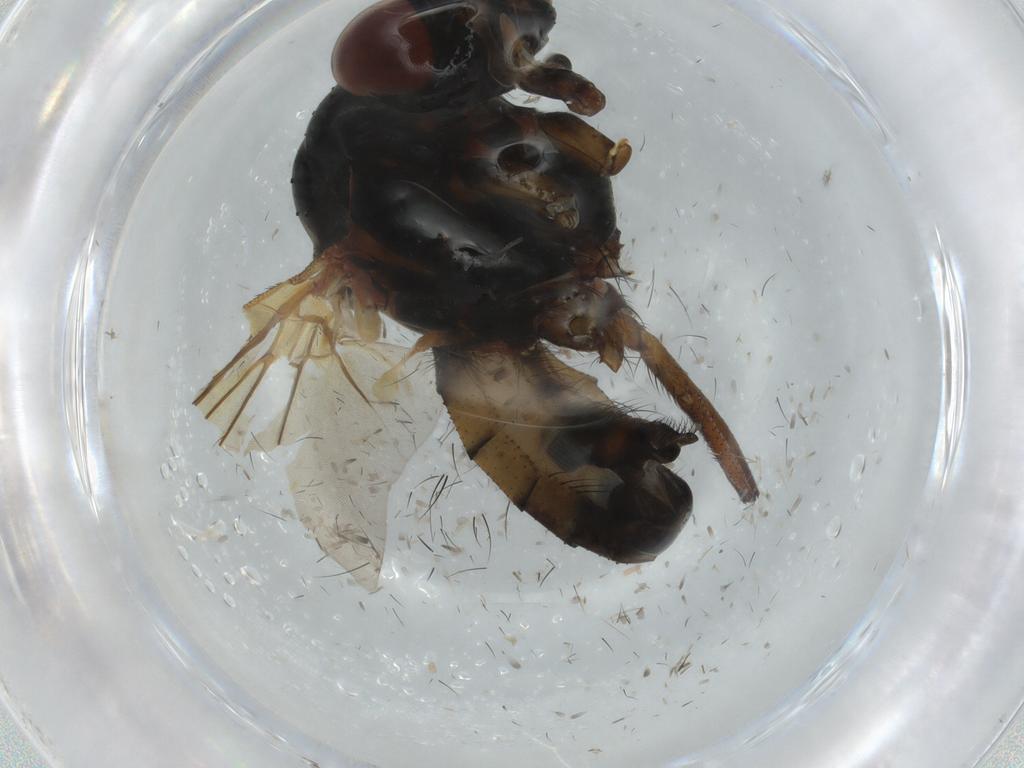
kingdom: Animalia
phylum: Arthropoda
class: Insecta
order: Diptera
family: Anthomyiidae
